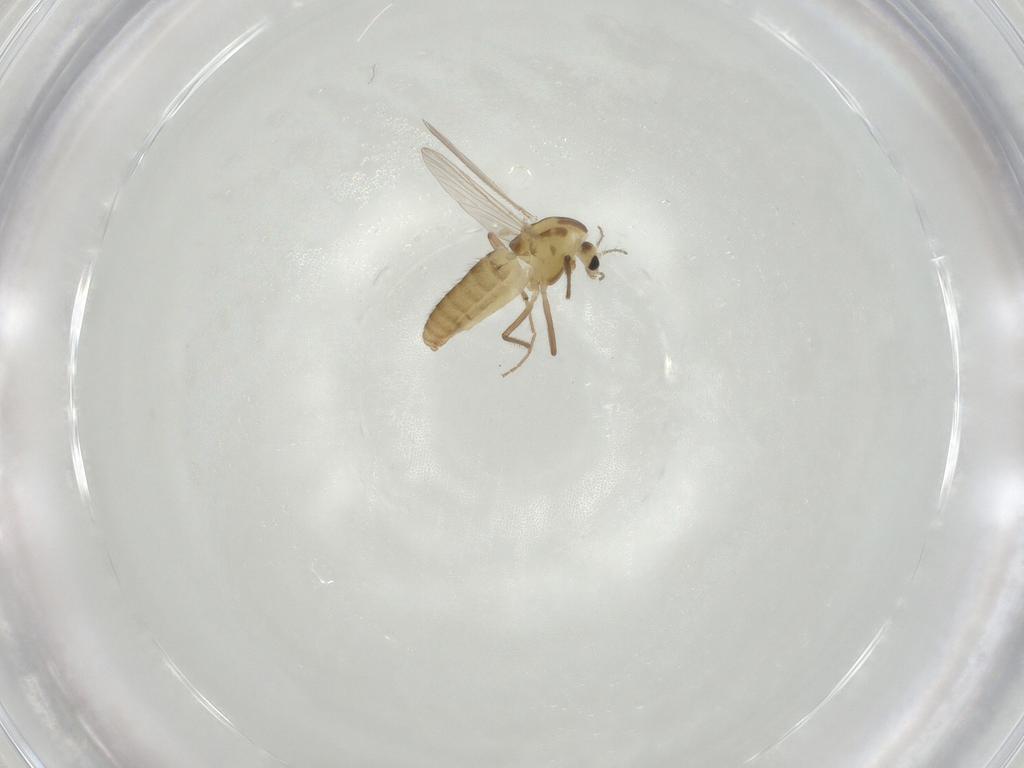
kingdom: Animalia
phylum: Arthropoda
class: Insecta
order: Diptera
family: Chironomidae
